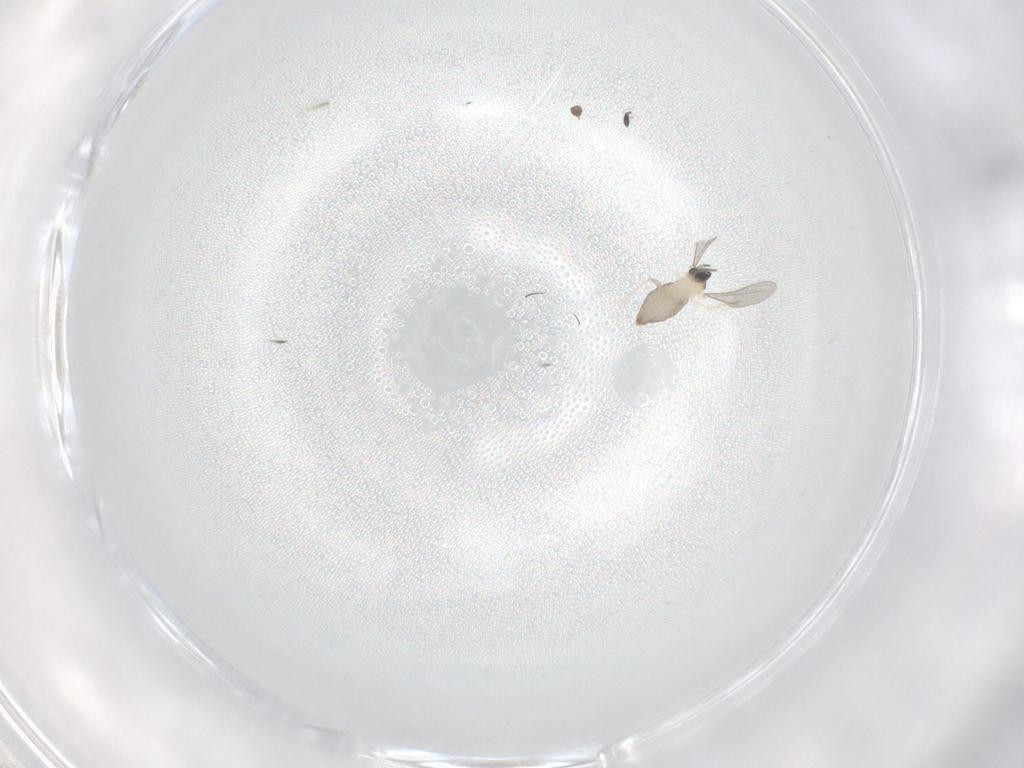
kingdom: Animalia
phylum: Arthropoda
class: Insecta
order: Diptera
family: Cecidomyiidae
